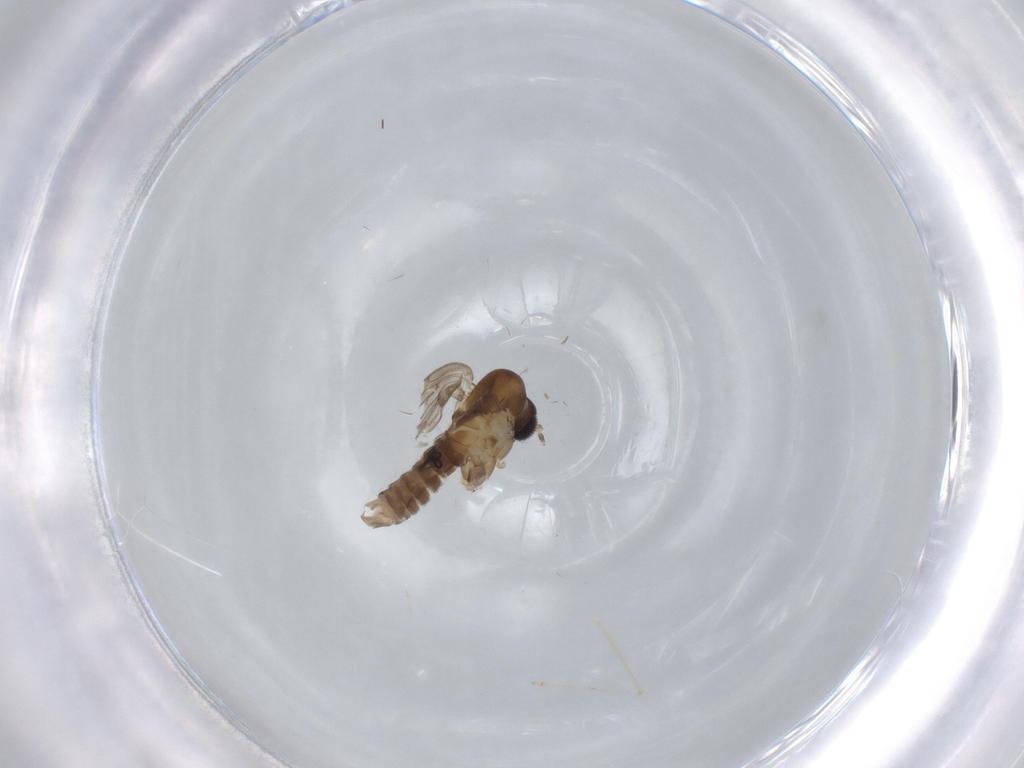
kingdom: Animalia
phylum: Arthropoda
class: Insecta
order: Diptera
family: Psychodidae
